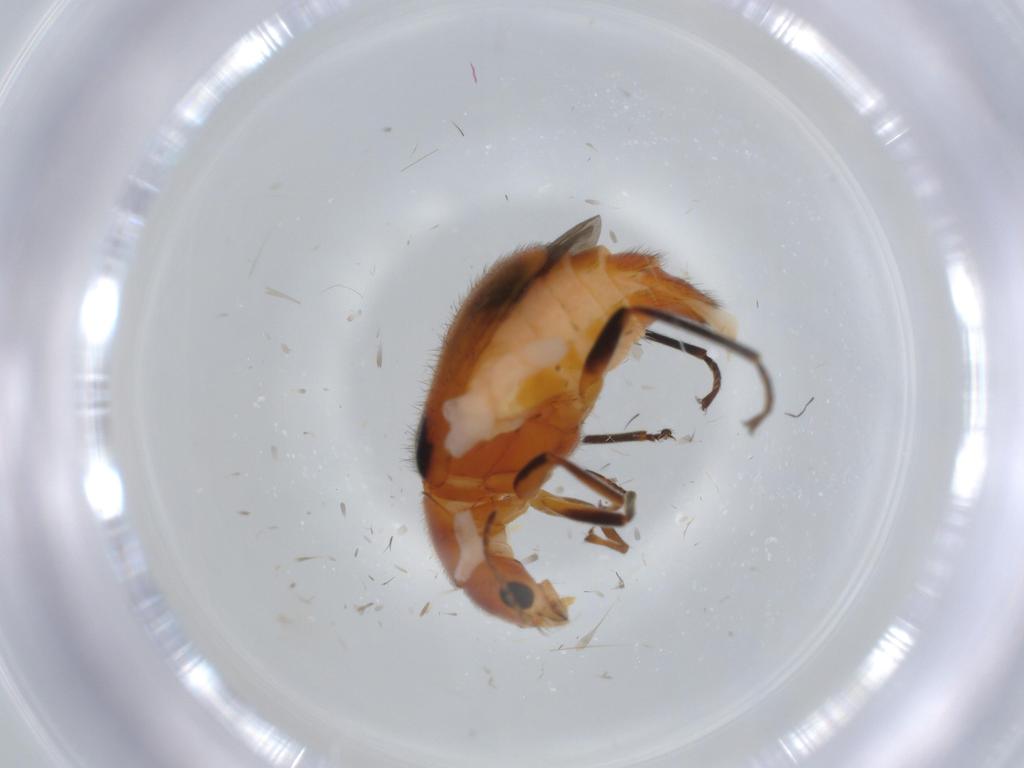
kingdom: Animalia
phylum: Arthropoda
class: Insecta
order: Coleoptera
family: Melyridae
